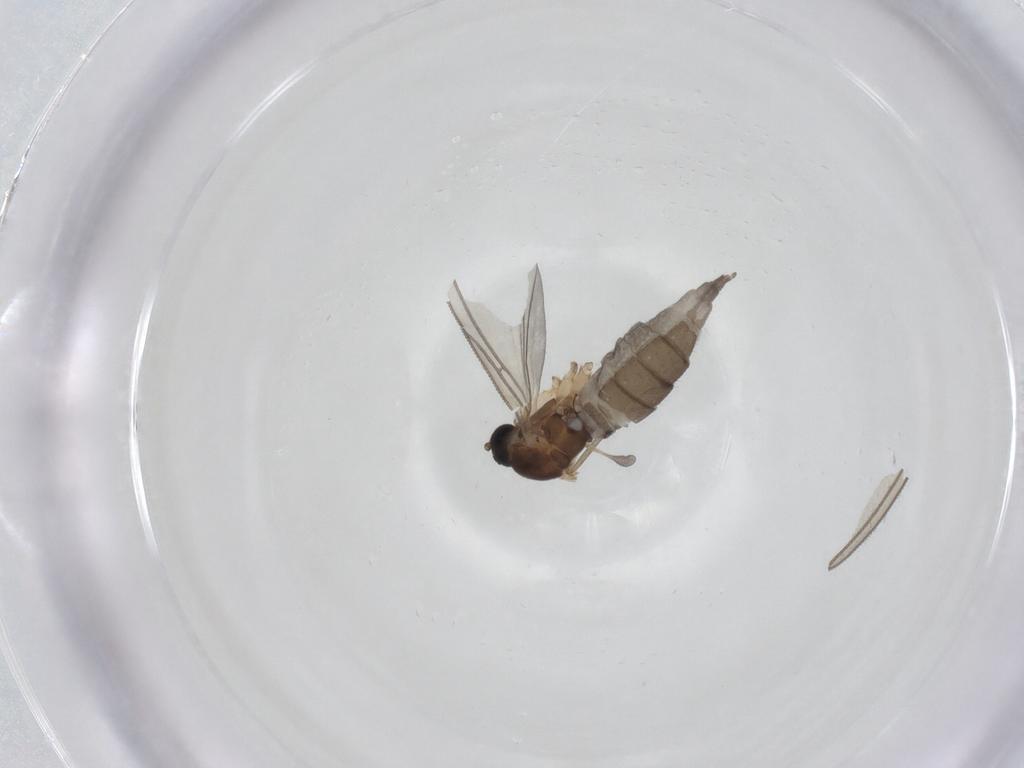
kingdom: Animalia
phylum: Arthropoda
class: Insecta
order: Diptera
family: Sciaridae
